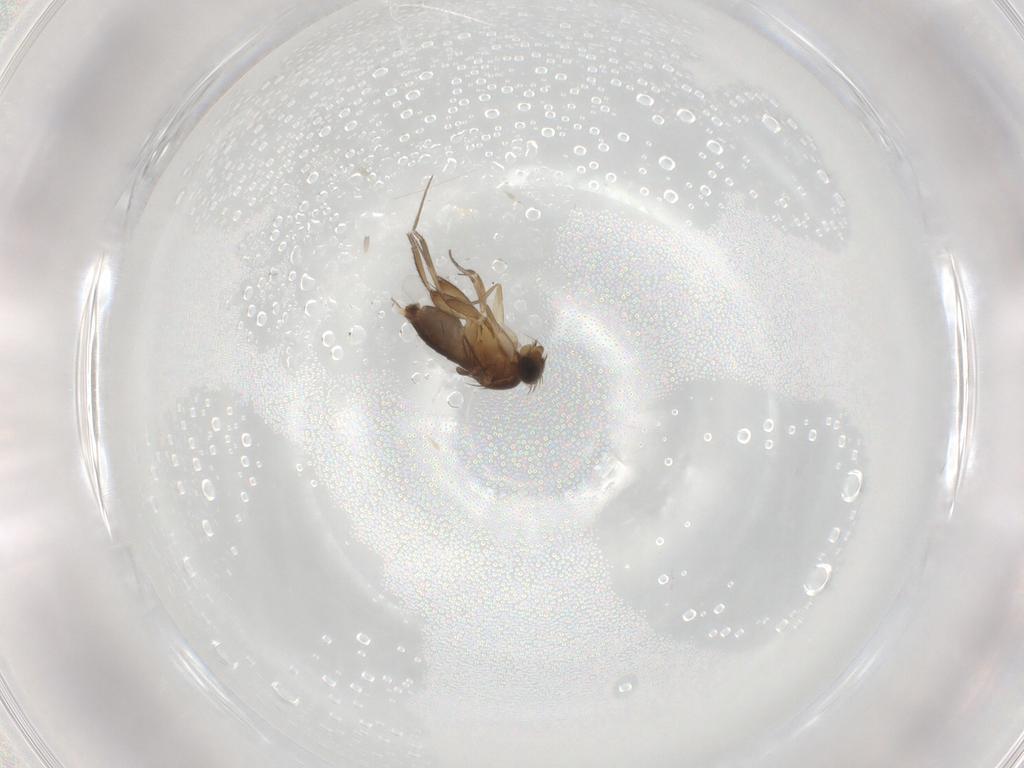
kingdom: Animalia
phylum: Arthropoda
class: Insecta
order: Diptera
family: Phoridae
